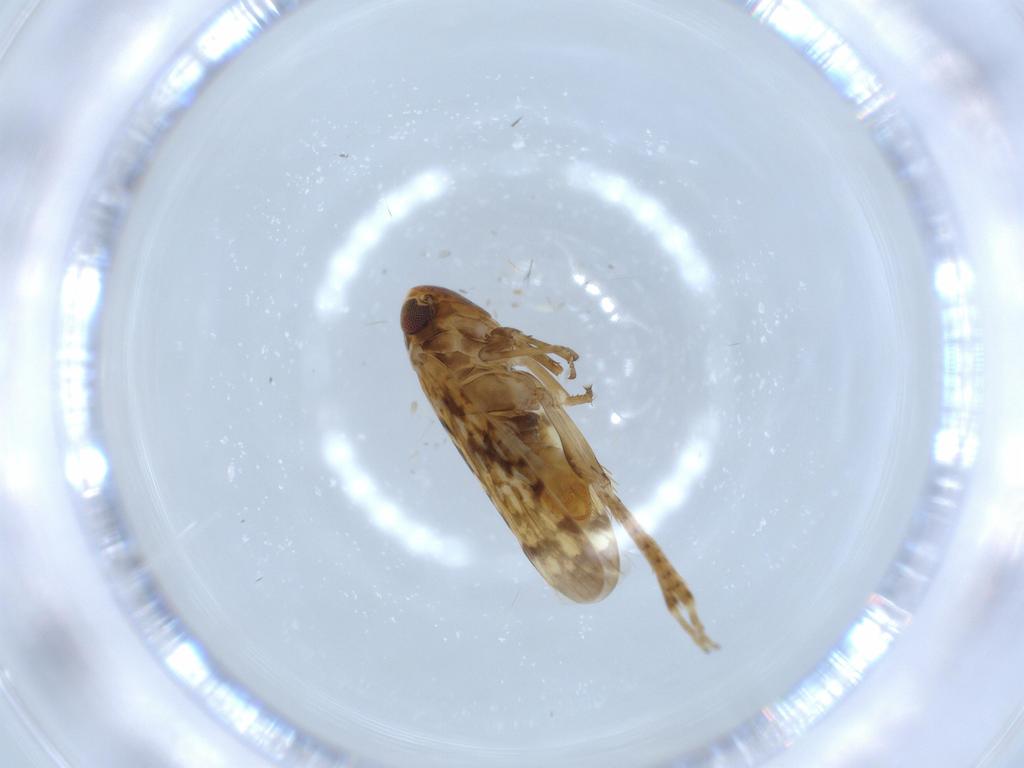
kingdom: Animalia
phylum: Arthropoda
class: Insecta
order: Hemiptera
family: Cicadellidae
